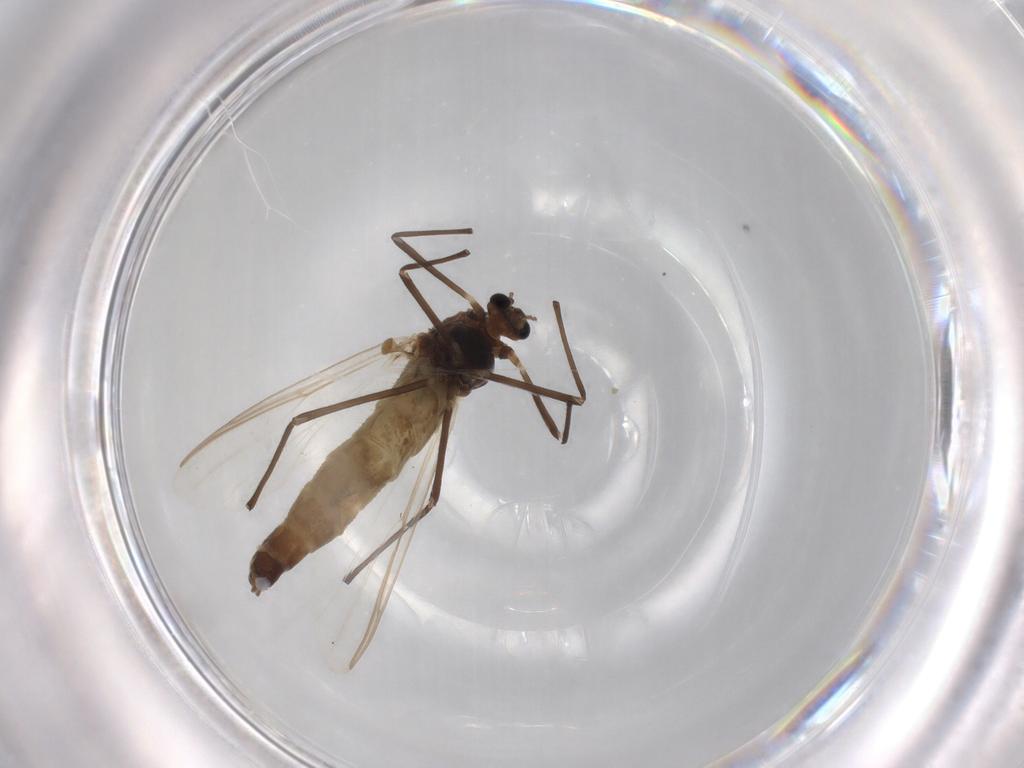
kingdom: Animalia
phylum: Arthropoda
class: Insecta
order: Diptera
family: Chironomidae
